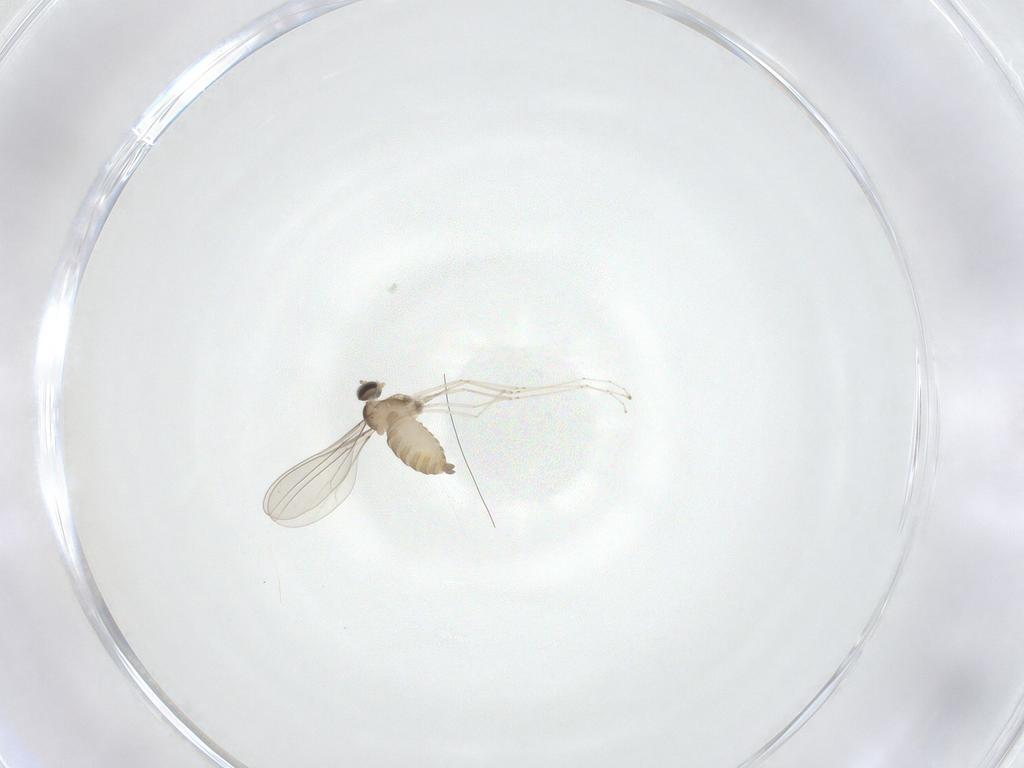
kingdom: Animalia
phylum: Arthropoda
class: Insecta
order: Diptera
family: Cecidomyiidae
